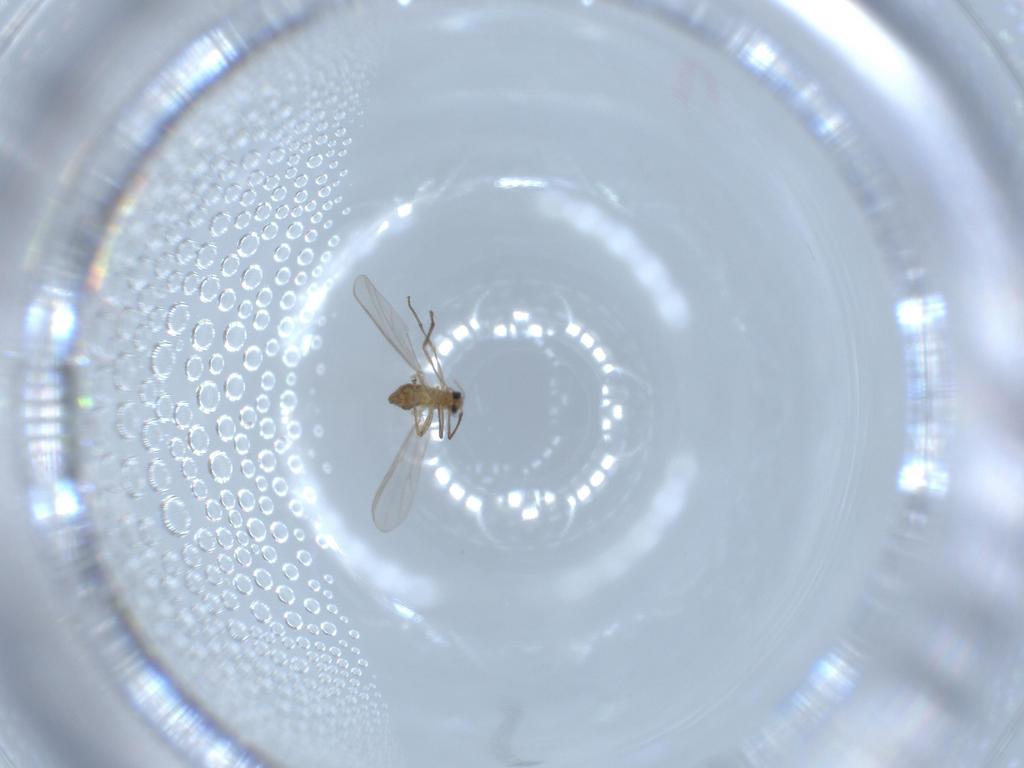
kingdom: Animalia
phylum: Arthropoda
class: Insecta
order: Diptera
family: Chironomidae
